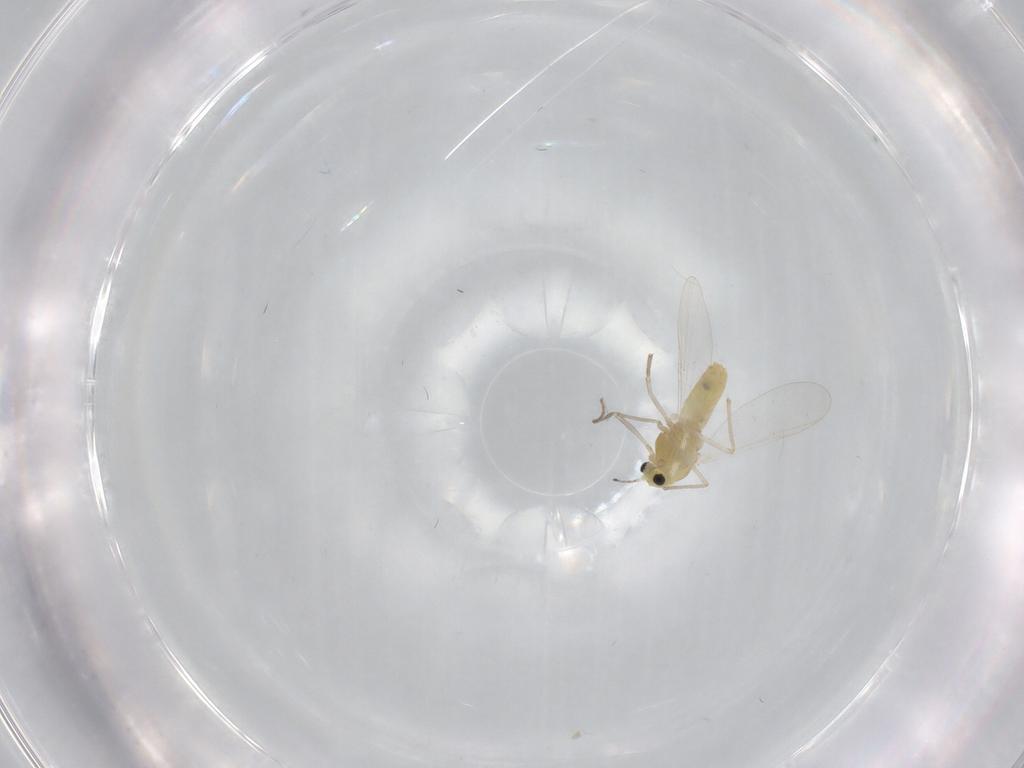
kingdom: Animalia
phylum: Arthropoda
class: Insecta
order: Diptera
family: Chironomidae
